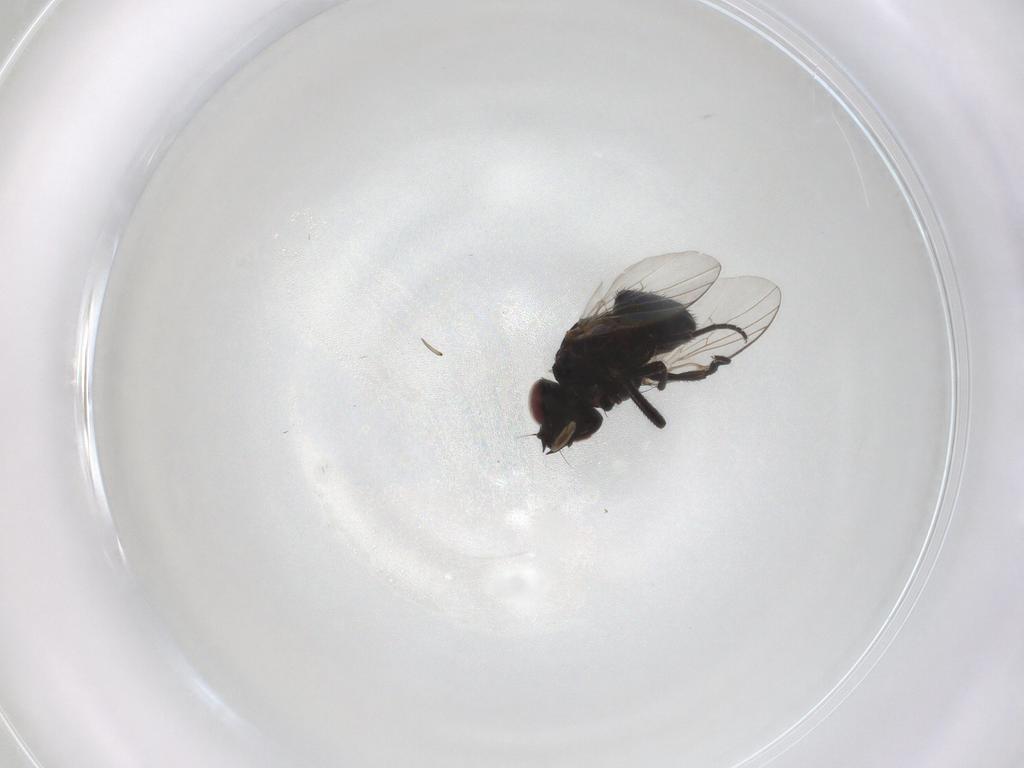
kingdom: Animalia
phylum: Arthropoda
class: Insecta
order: Diptera
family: Agromyzidae
